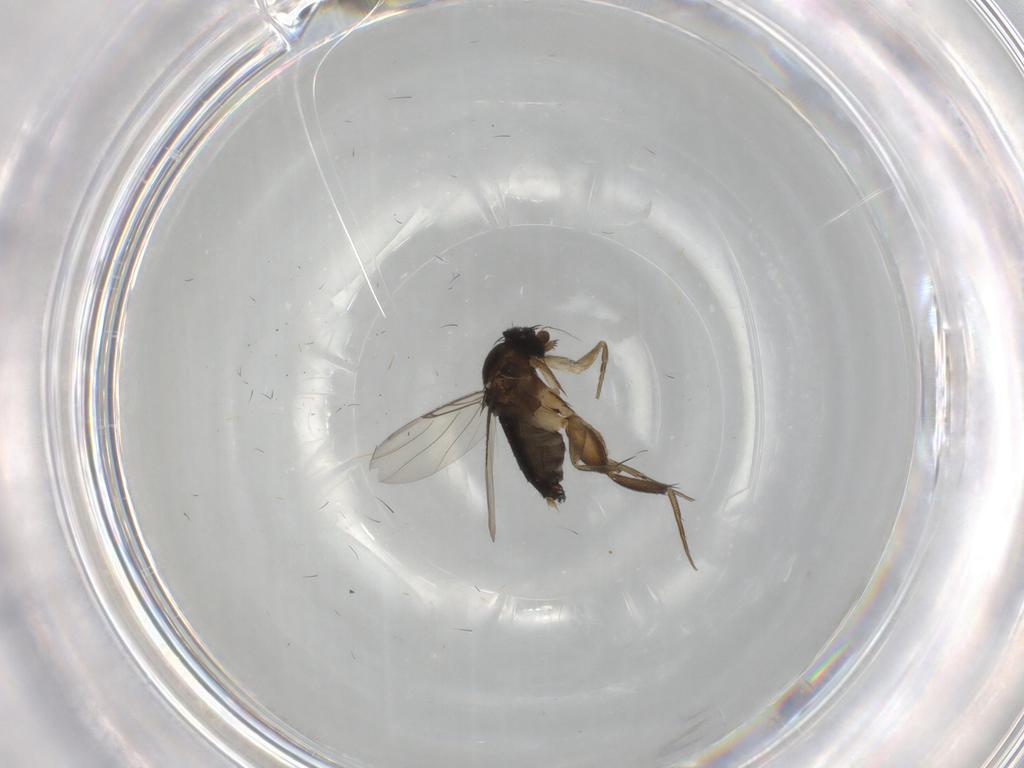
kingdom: Animalia
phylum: Arthropoda
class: Insecta
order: Diptera
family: Phoridae
